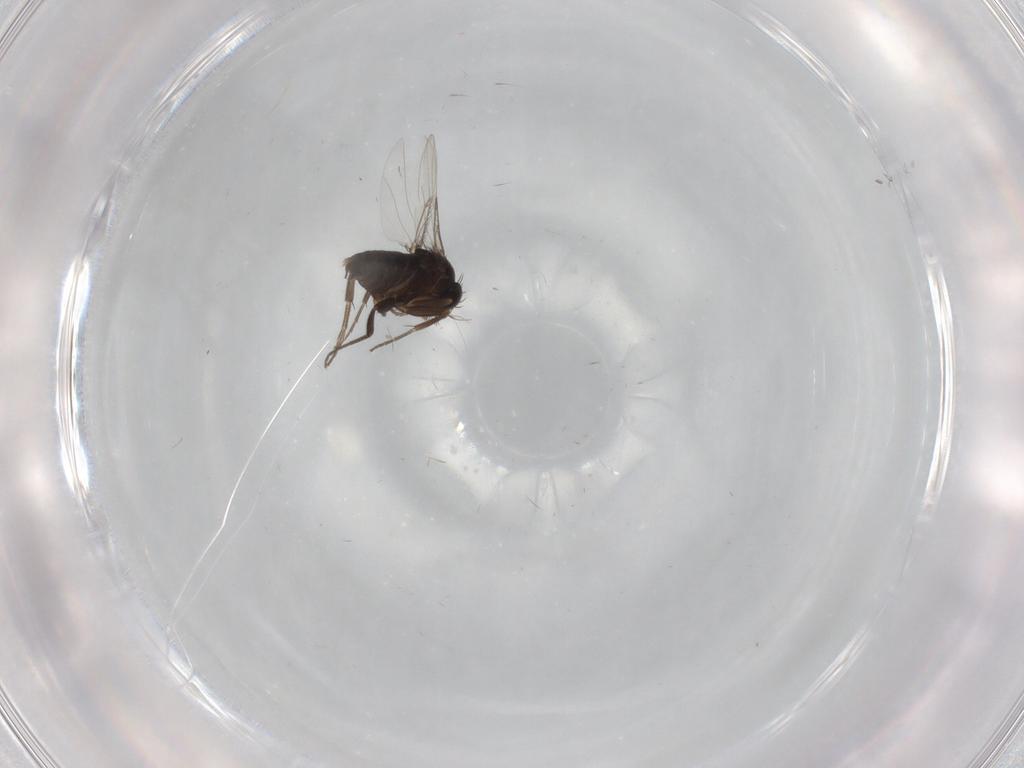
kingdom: Animalia
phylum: Arthropoda
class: Insecta
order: Diptera
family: Phoridae
